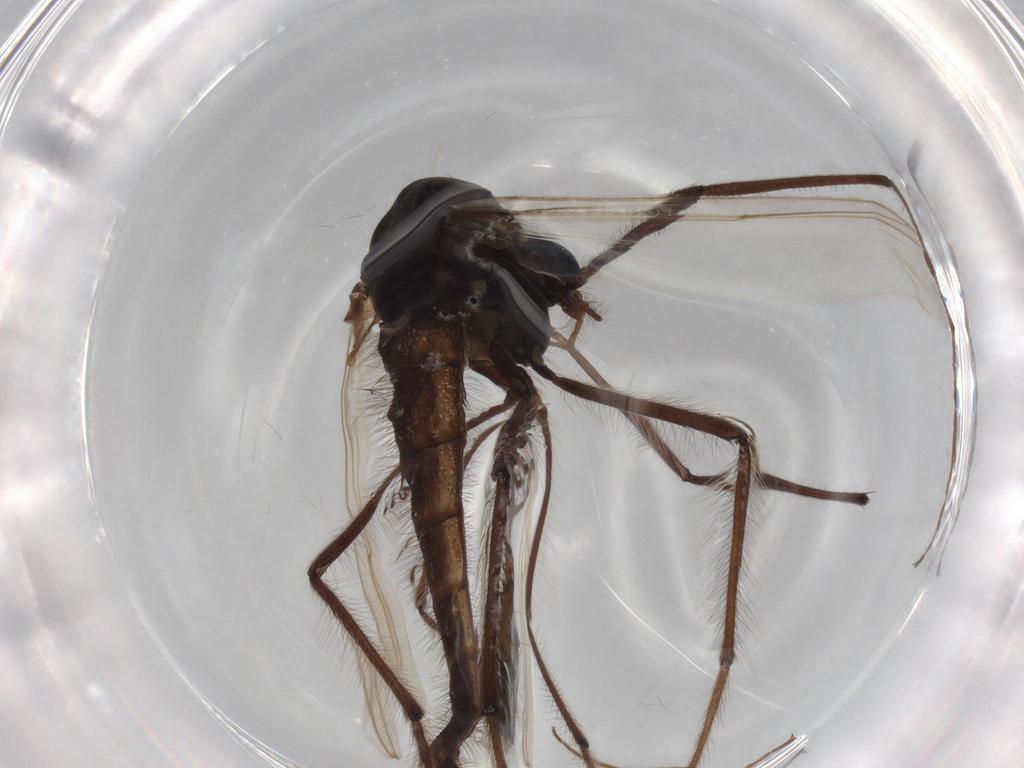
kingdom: Animalia
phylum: Arthropoda
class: Insecta
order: Diptera
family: Chironomidae
